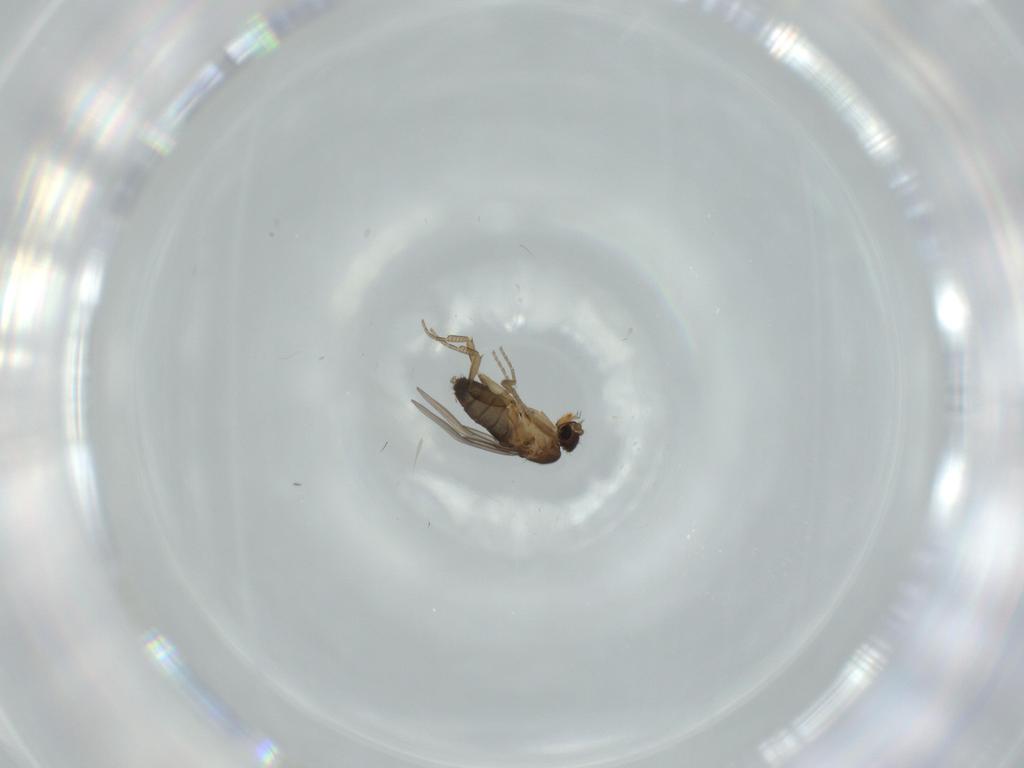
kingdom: Animalia
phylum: Arthropoda
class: Insecta
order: Diptera
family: Phoridae
